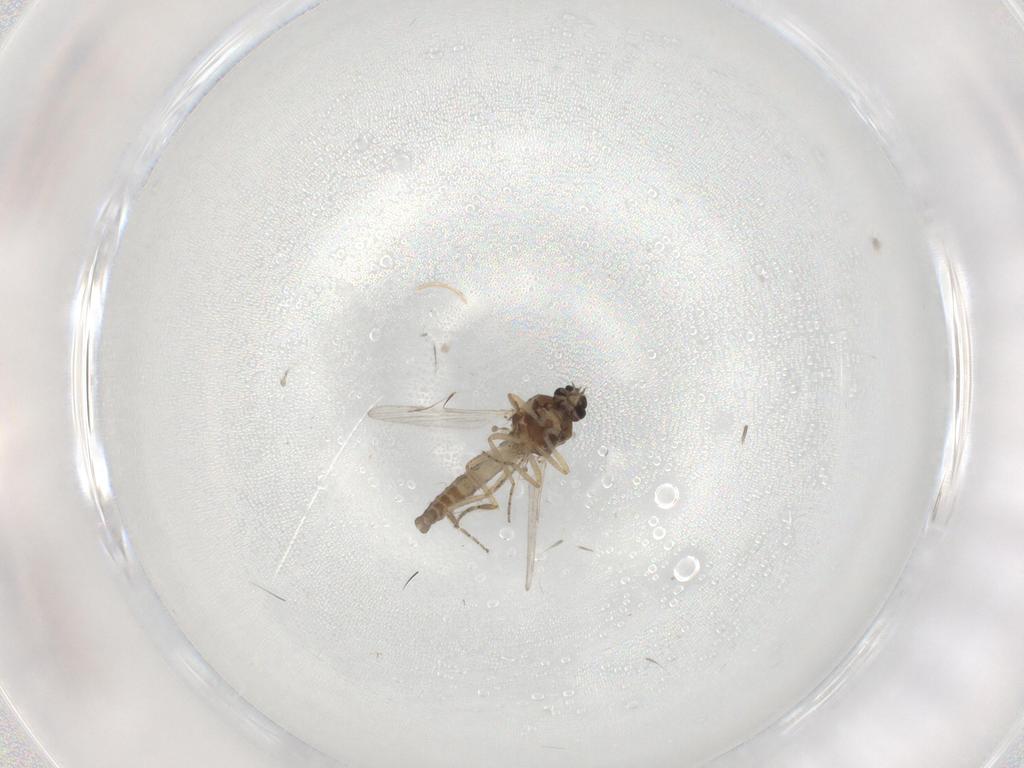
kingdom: Animalia
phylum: Arthropoda
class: Insecta
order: Diptera
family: Ceratopogonidae
